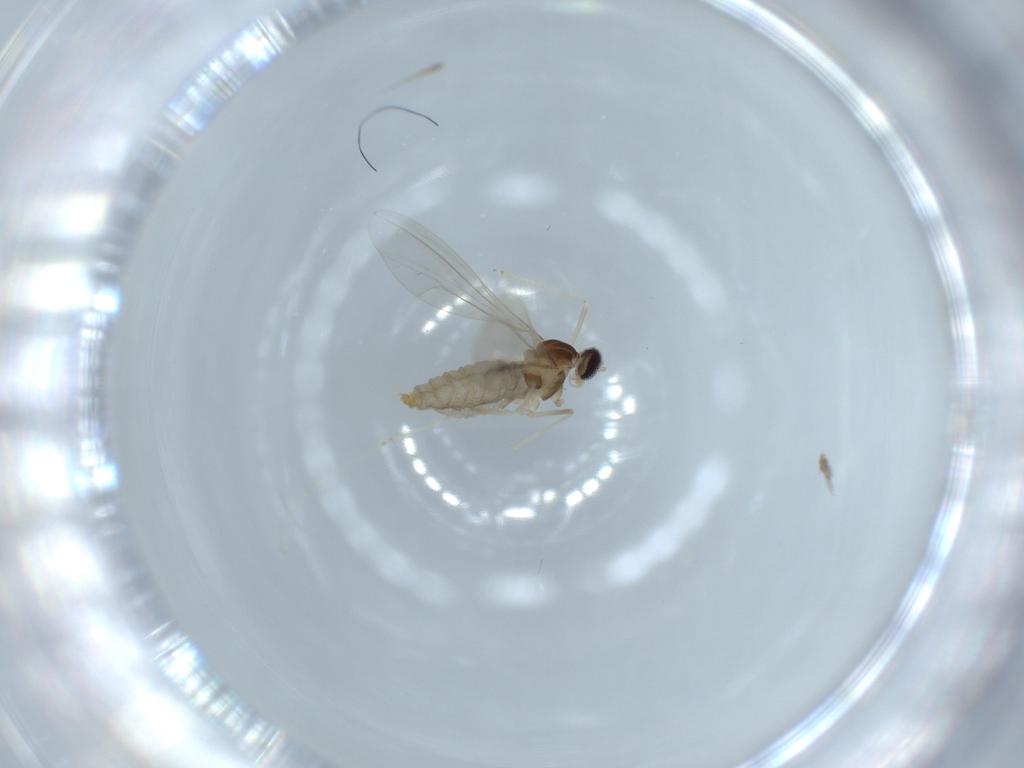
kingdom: Animalia
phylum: Arthropoda
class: Insecta
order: Diptera
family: Cecidomyiidae
